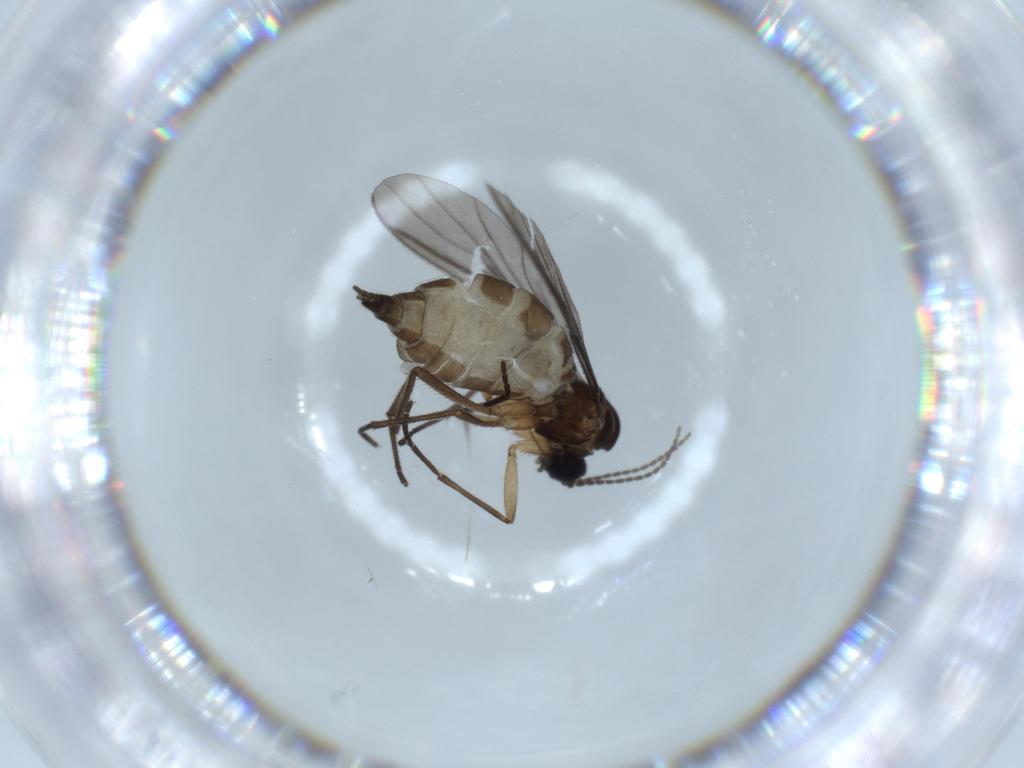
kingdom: Animalia
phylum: Arthropoda
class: Insecta
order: Diptera
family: Sciaridae
